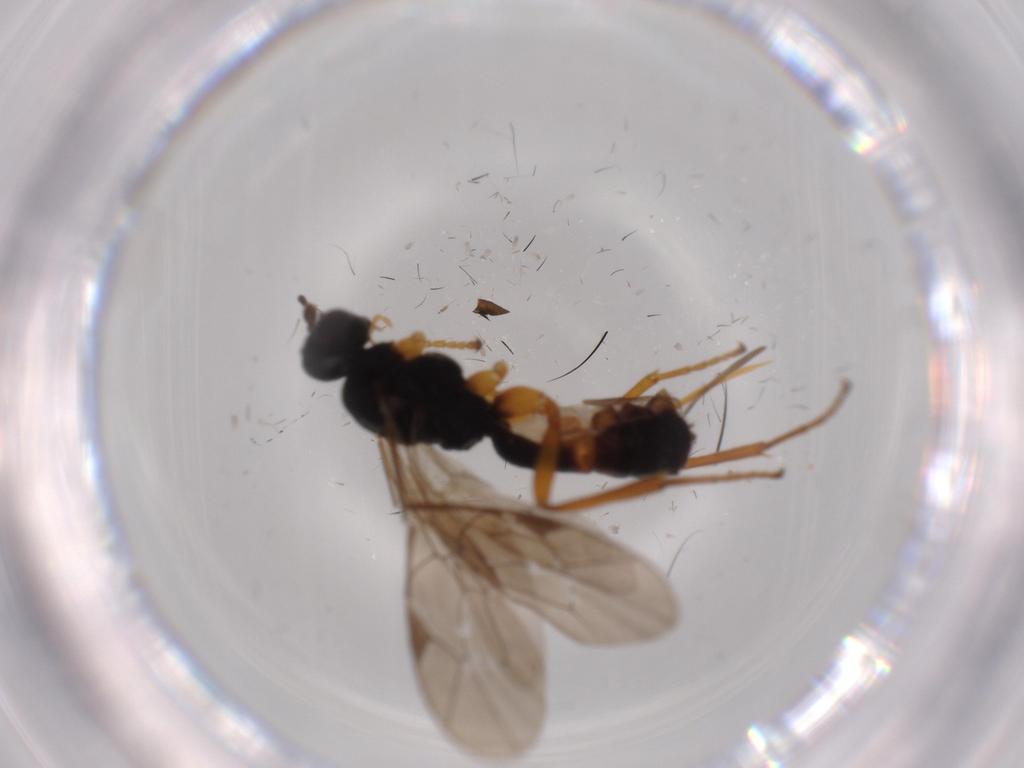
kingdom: Animalia
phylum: Arthropoda
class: Insecta
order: Hymenoptera
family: Ichneumonidae
